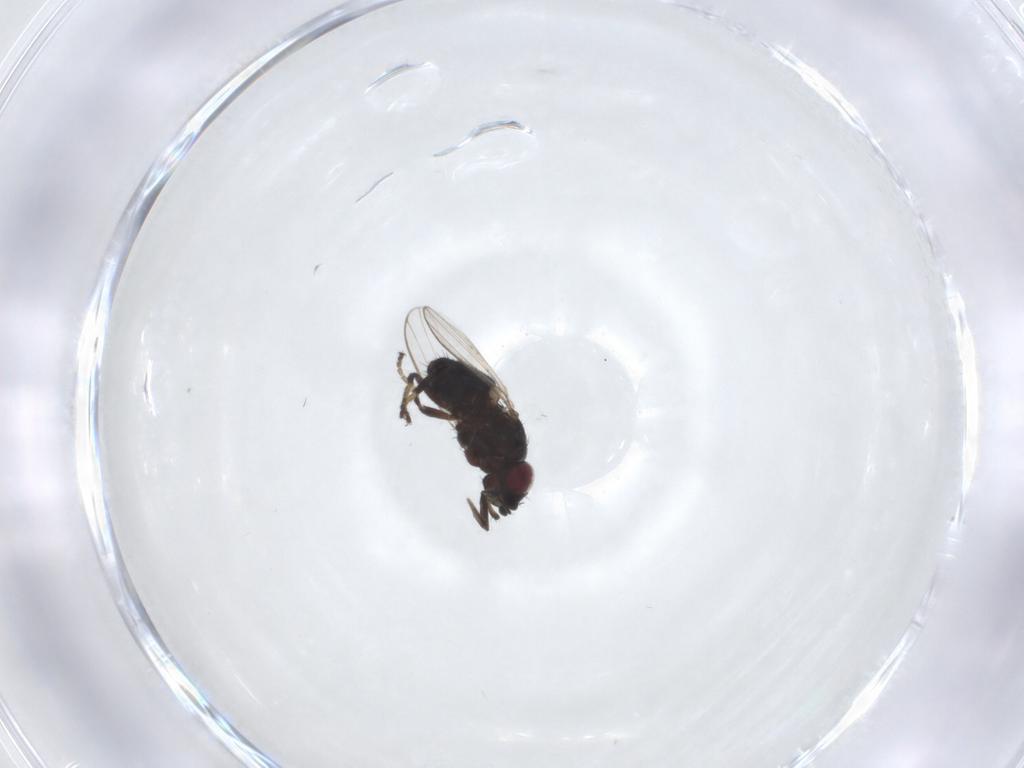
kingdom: Animalia
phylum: Arthropoda
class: Insecta
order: Diptera
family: Milichiidae
